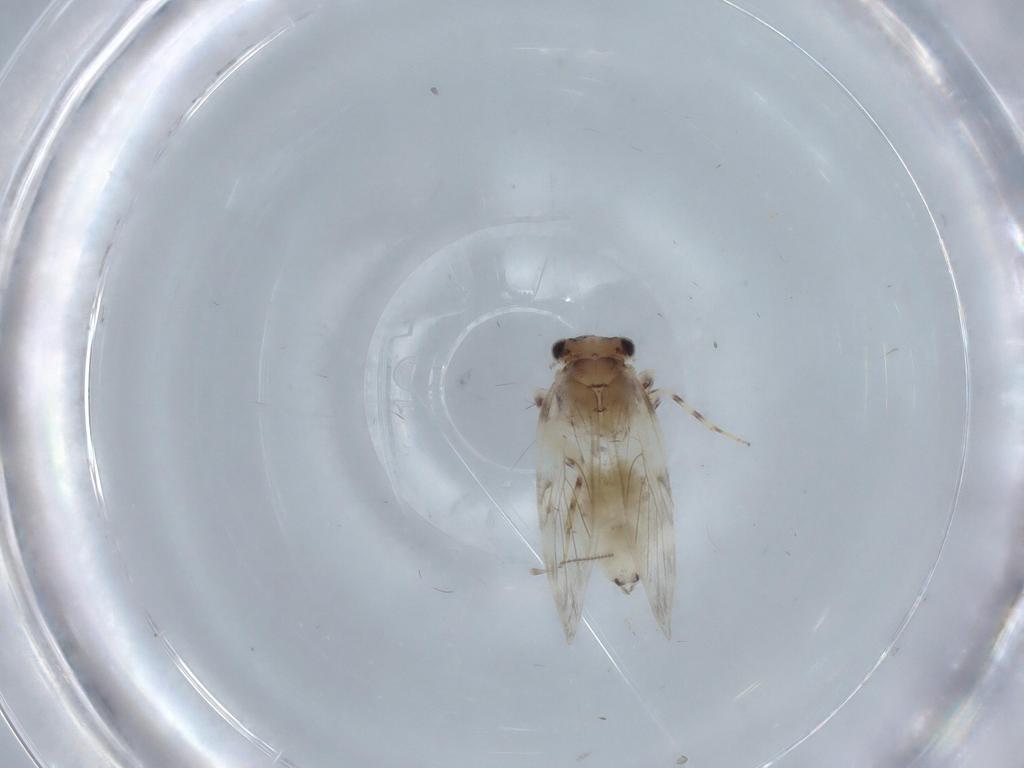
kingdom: Animalia
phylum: Arthropoda
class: Insecta
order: Psocodea
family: Lepidopsocidae
